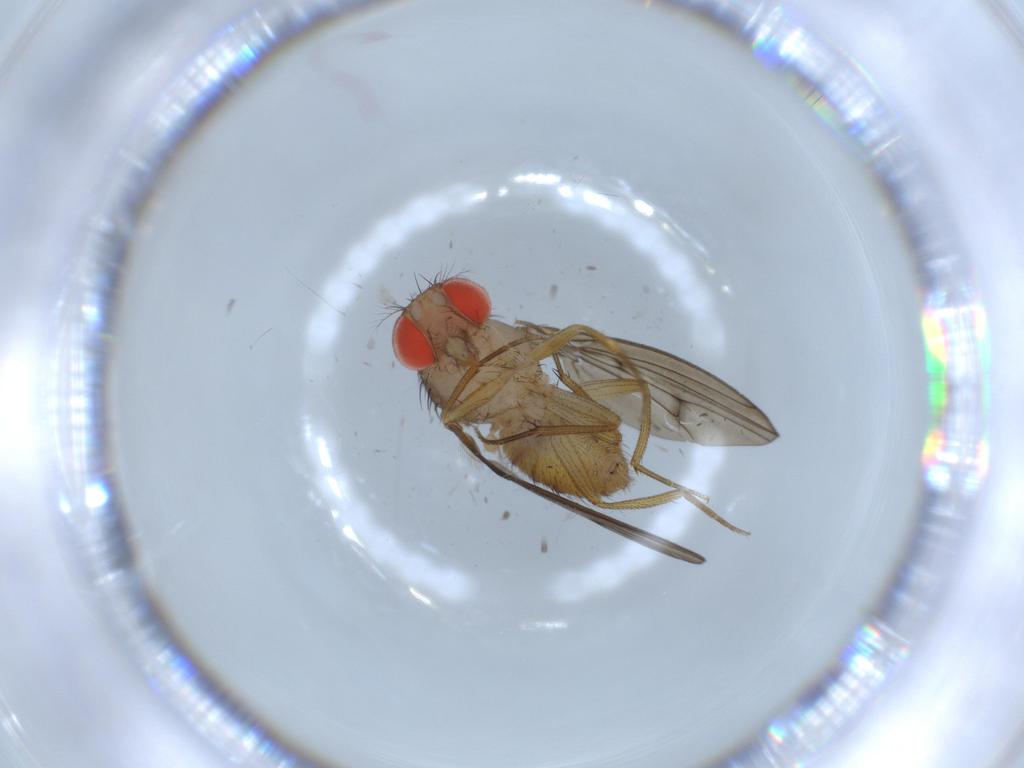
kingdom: Animalia
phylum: Arthropoda
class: Insecta
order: Diptera
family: Drosophilidae
